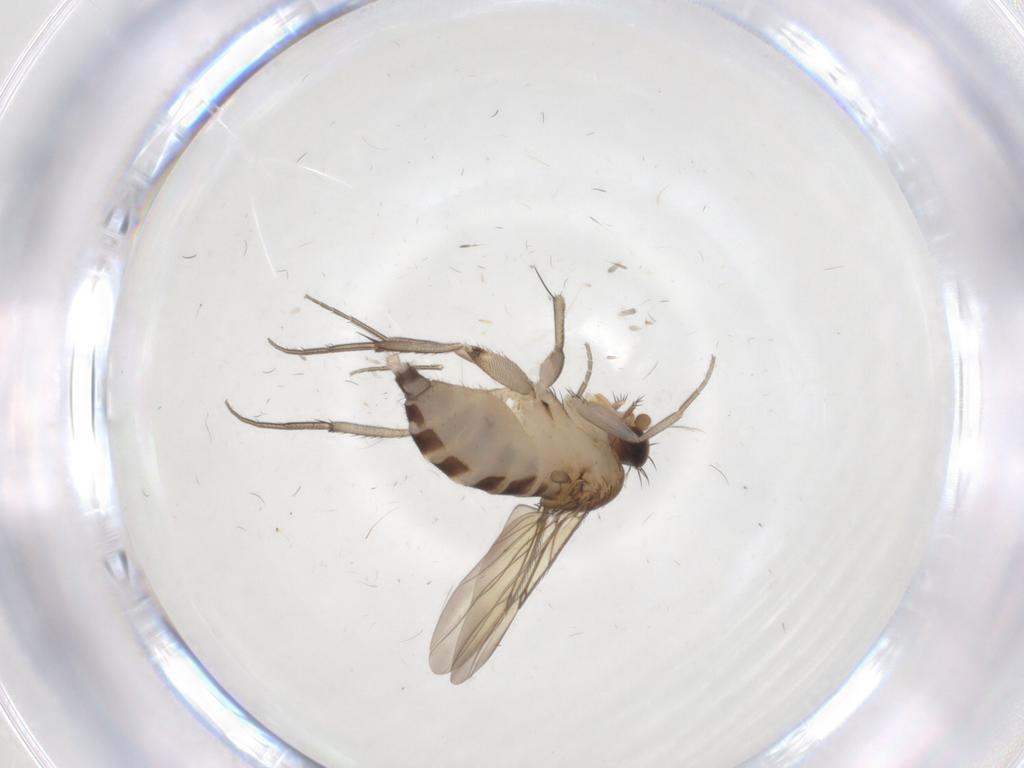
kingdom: Animalia
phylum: Arthropoda
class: Insecta
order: Diptera
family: Phoridae
